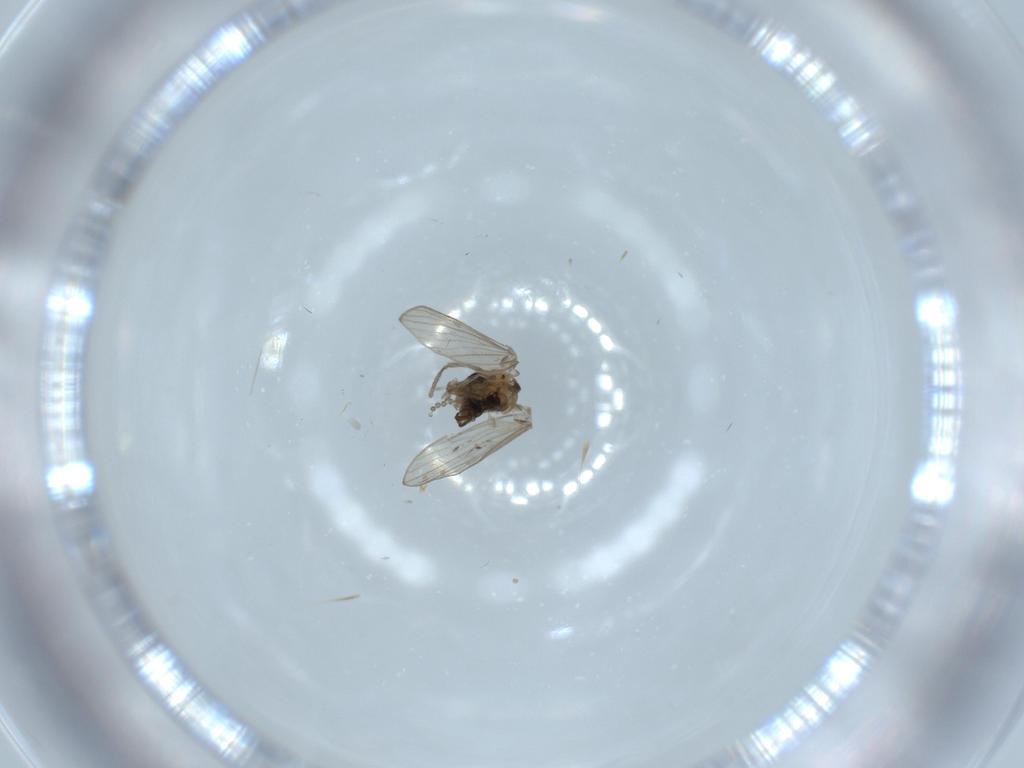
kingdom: Animalia
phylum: Arthropoda
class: Insecta
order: Diptera
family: Psychodidae
